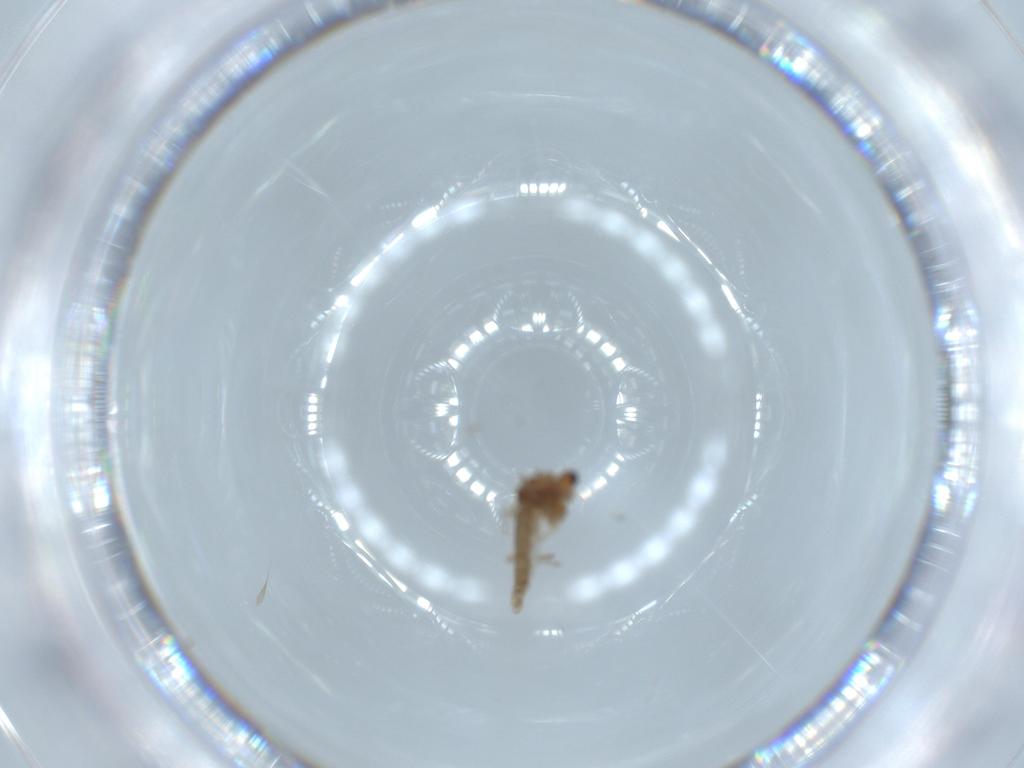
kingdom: Animalia
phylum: Arthropoda
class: Insecta
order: Diptera
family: Chironomidae
